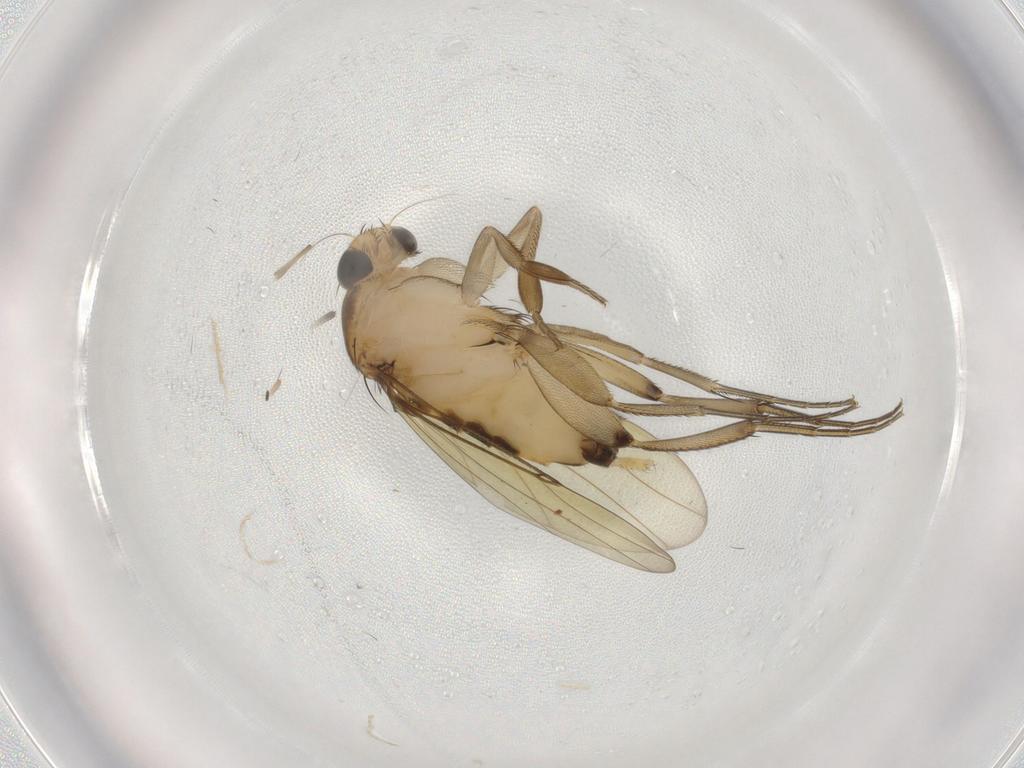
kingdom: Animalia
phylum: Arthropoda
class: Insecta
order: Diptera
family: Phoridae
